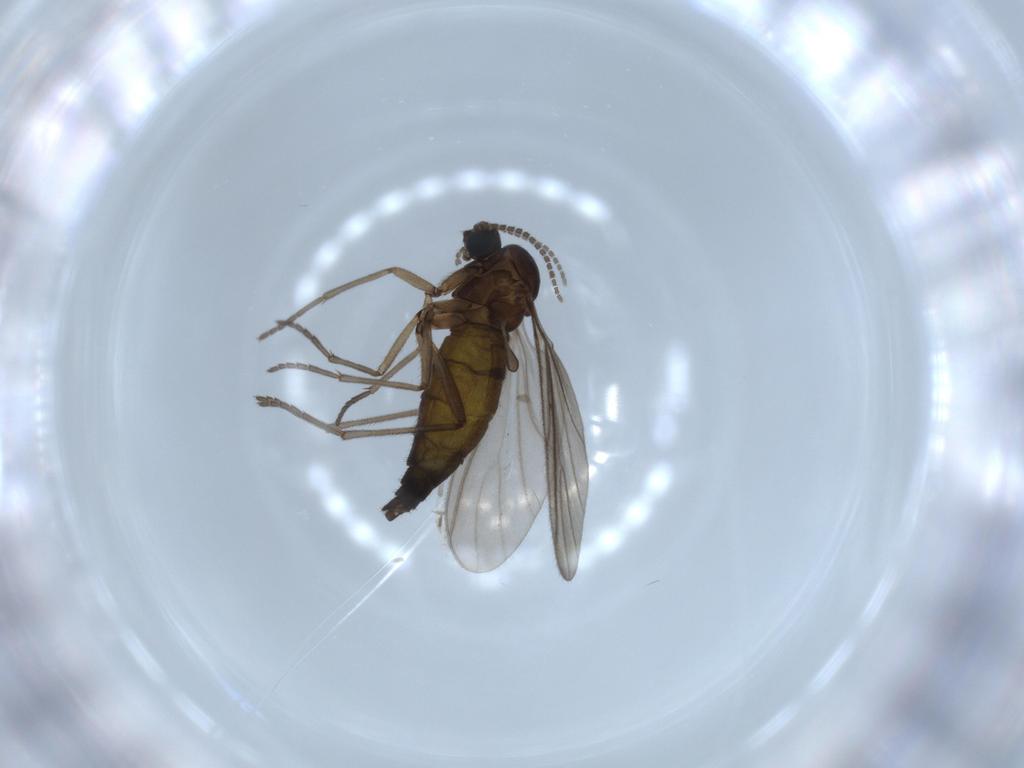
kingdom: Animalia
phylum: Arthropoda
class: Insecta
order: Diptera
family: Sciaridae
